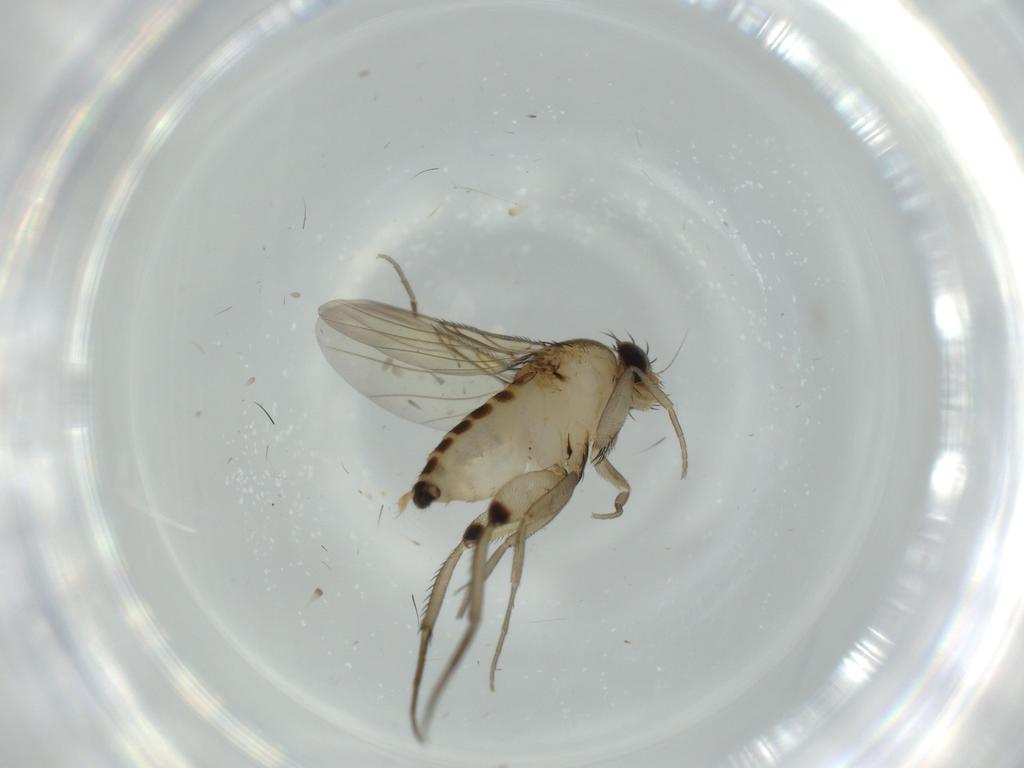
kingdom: Animalia
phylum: Arthropoda
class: Insecta
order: Diptera
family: Phoridae
